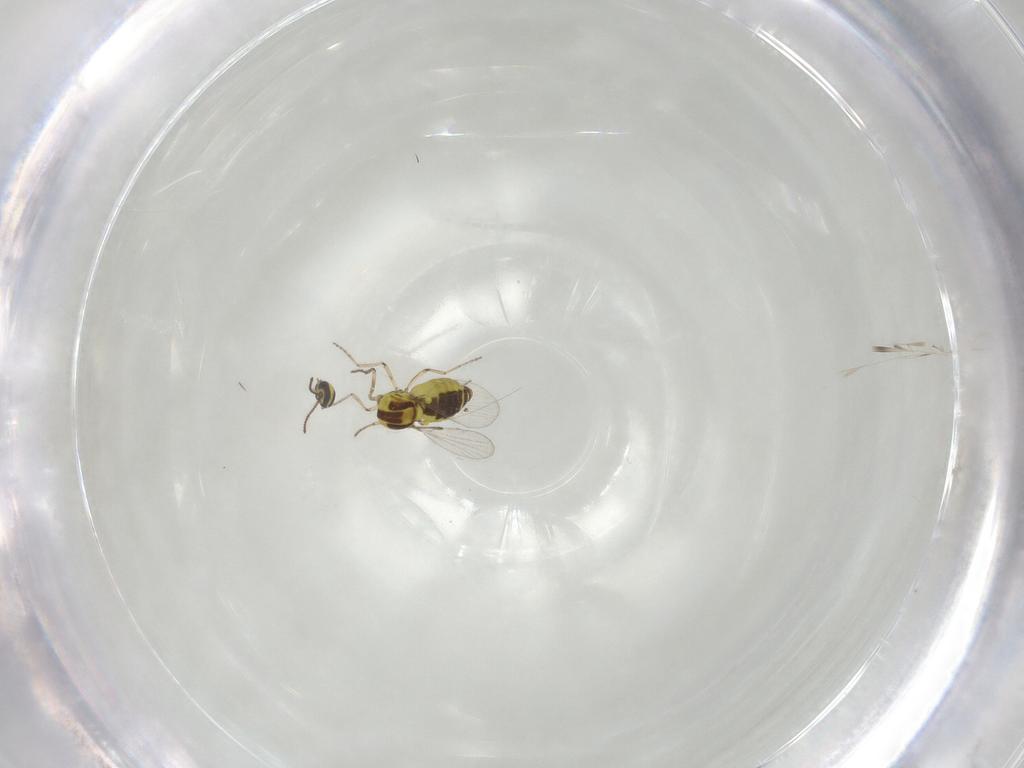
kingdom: Animalia
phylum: Arthropoda
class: Insecta
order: Diptera
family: Ceratopogonidae
